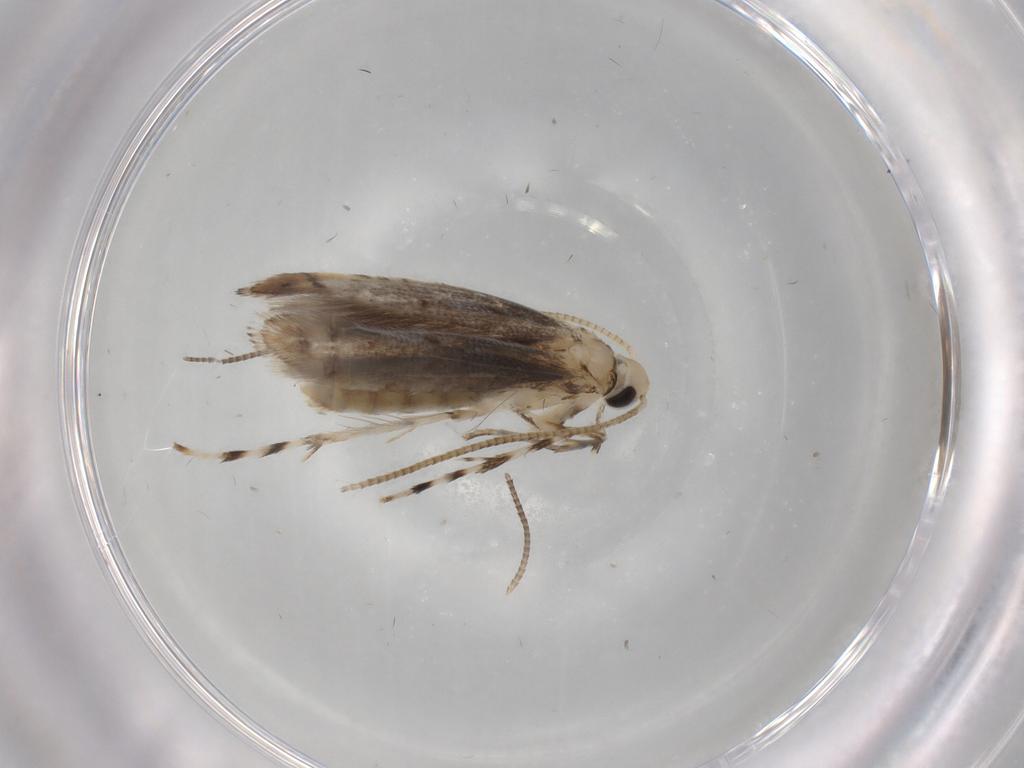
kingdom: Animalia
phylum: Arthropoda
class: Insecta
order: Lepidoptera
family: Gracillariidae
